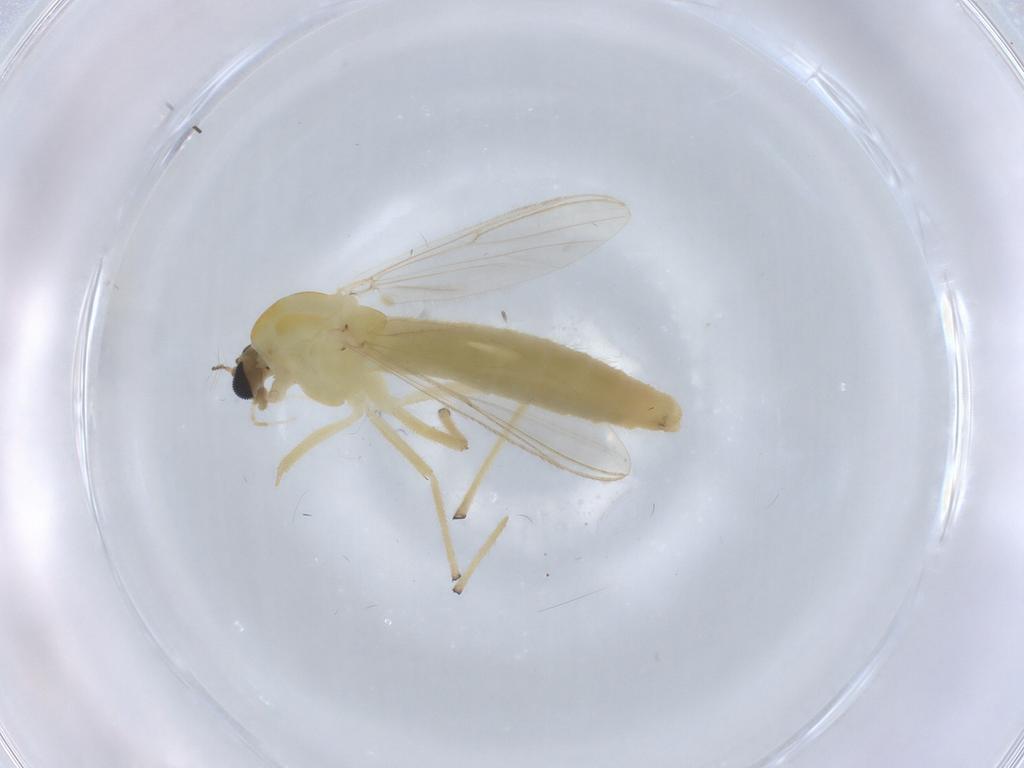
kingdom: Animalia
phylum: Arthropoda
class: Insecta
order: Diptera
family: Chironomidae
